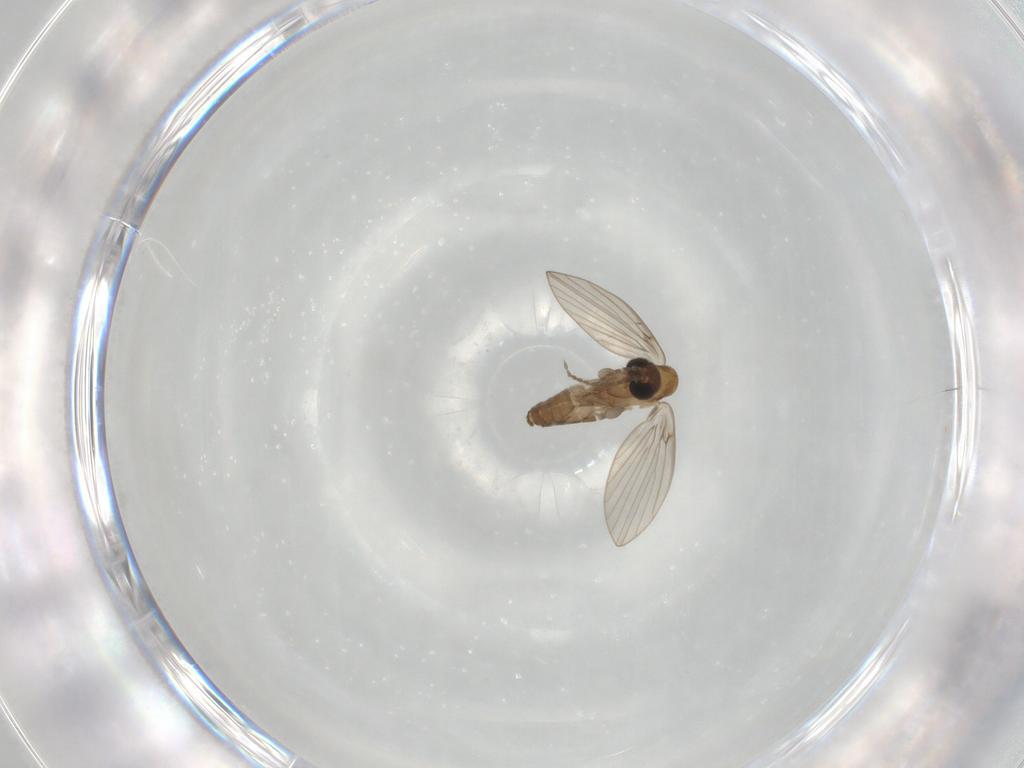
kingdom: Animalia
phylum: Arthropoda
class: Insecta
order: Diptera
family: Psychodidae
